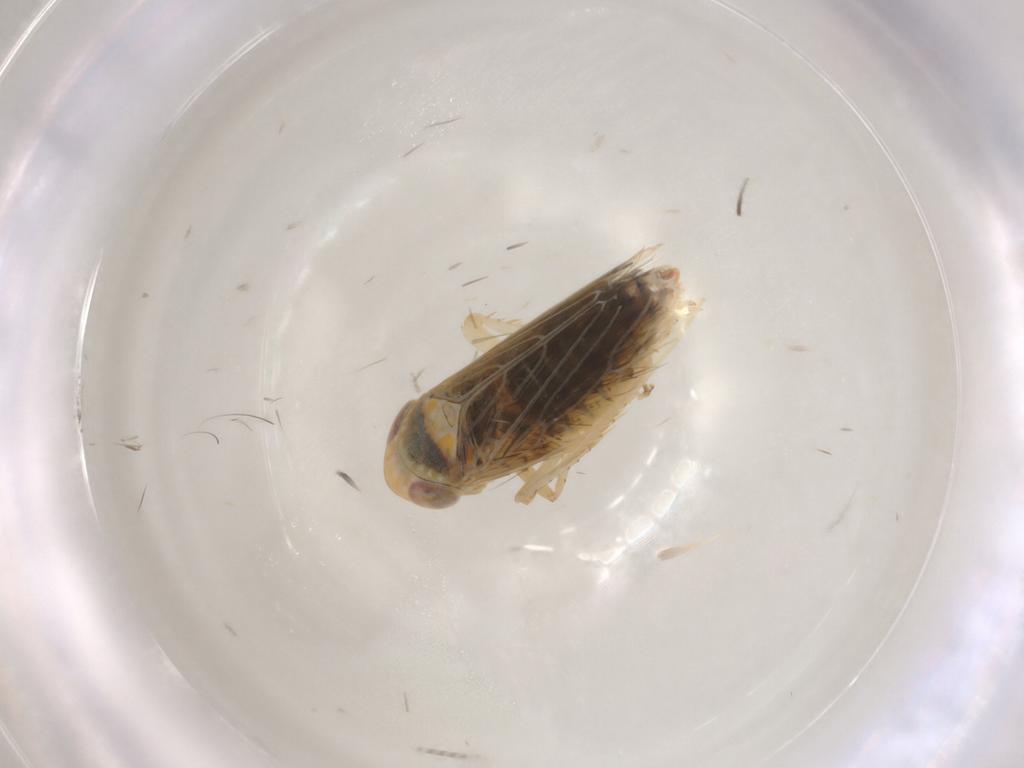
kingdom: Animalia
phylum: Arthropoda
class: Insecta
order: Hemiptera
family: Cicadellidae
